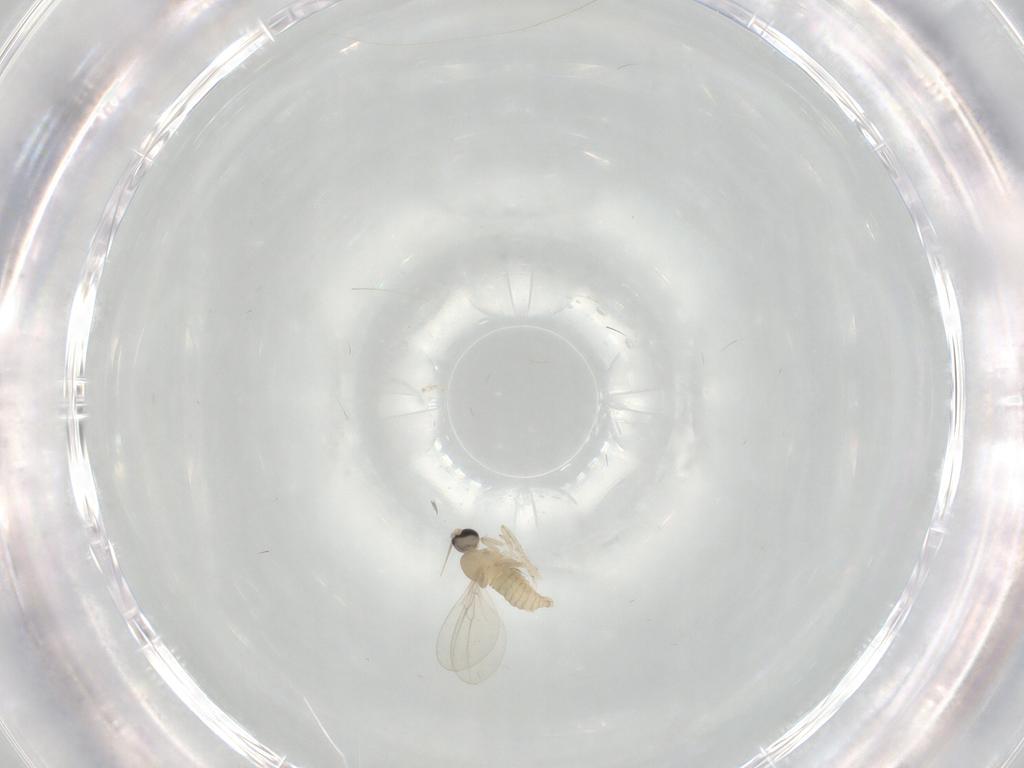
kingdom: Animalia
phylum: Arthropoda
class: Insecta
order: Diptera
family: Cecidomyiidae
